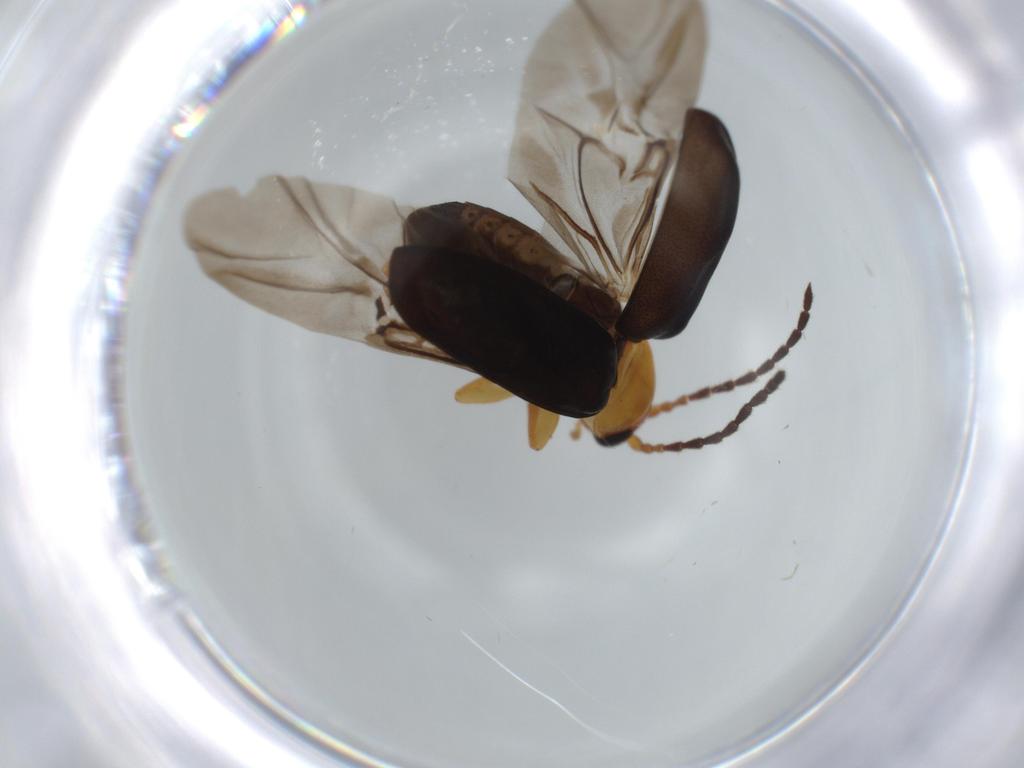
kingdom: Animalia
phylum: Arthropoda
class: Insecta
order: Coleoptera
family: Chrysomelidae
